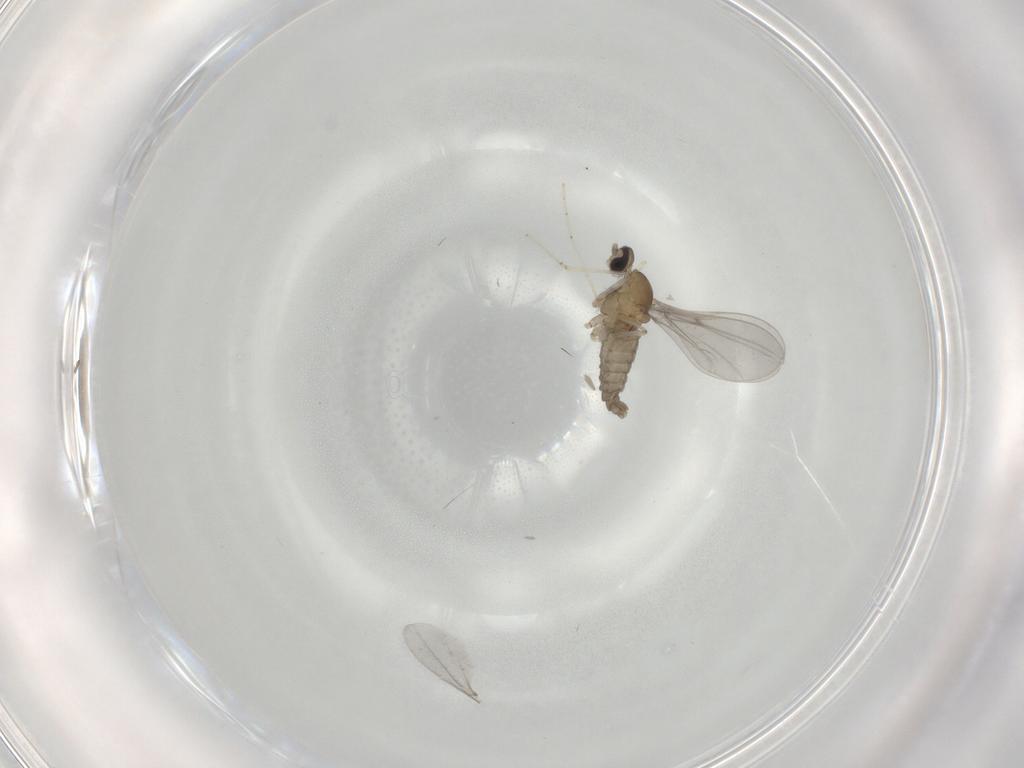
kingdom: Animalia
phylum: Arthropoda
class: Insecta
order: Diptera
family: Cecidomyiidae
